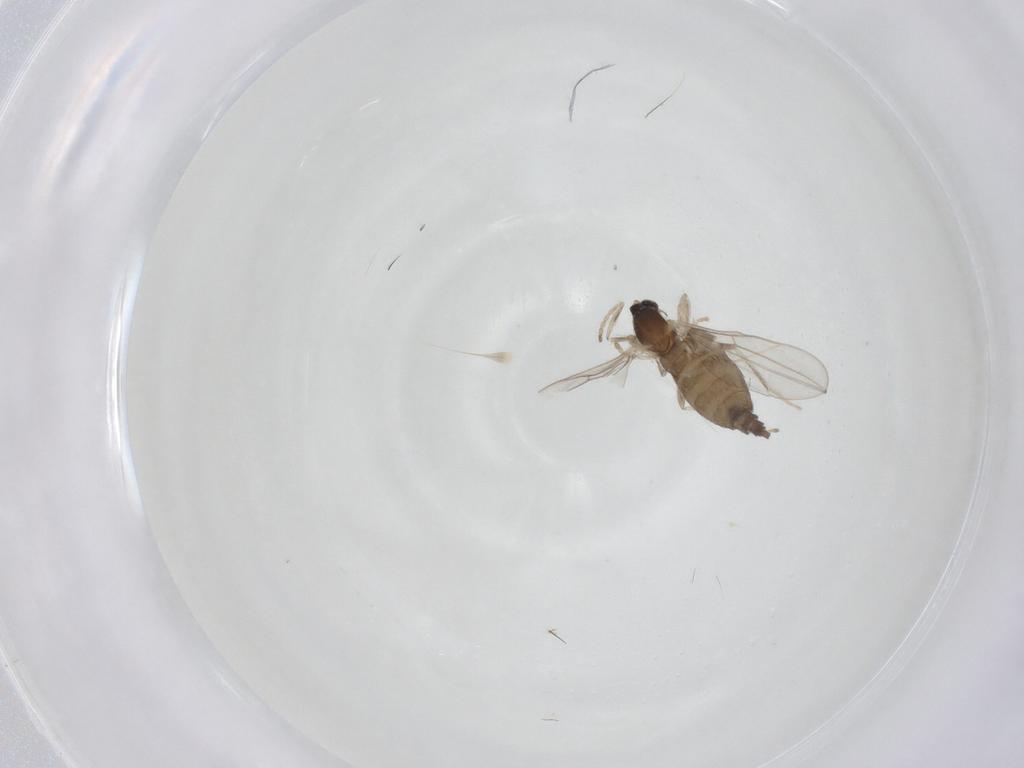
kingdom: Animalia
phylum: Arthropoda
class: Insecta
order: Diptera
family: Cecidomyiidae
